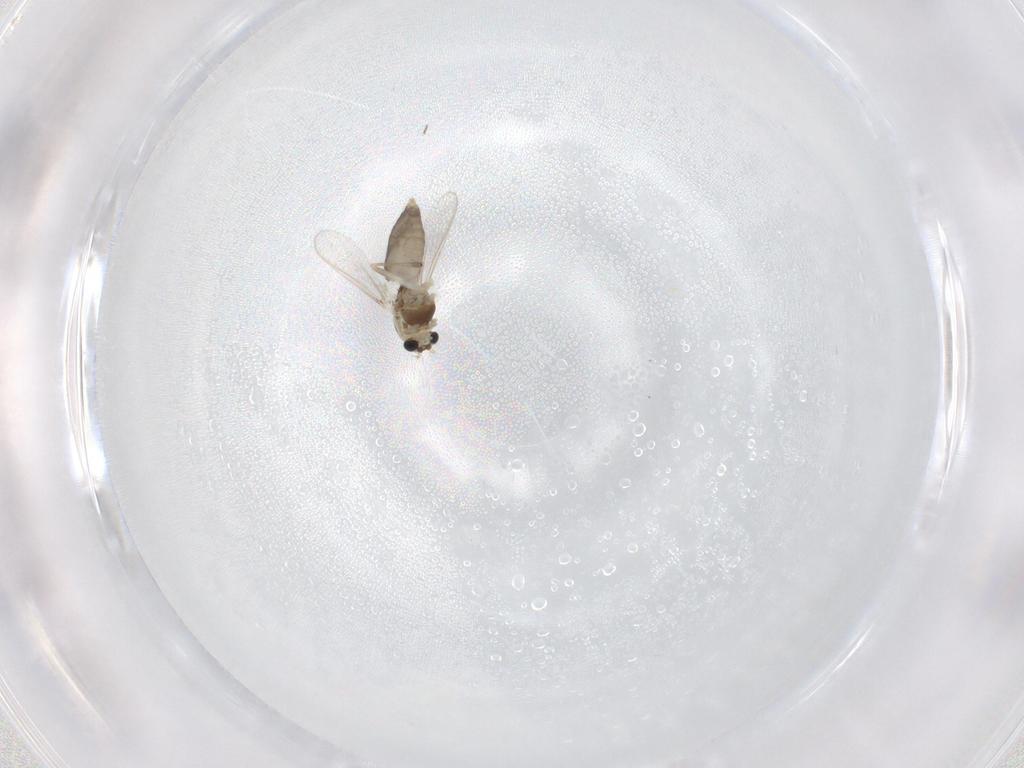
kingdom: Animalia
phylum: Arthropoda
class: Insecta
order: Diptera
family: Chironomidae
